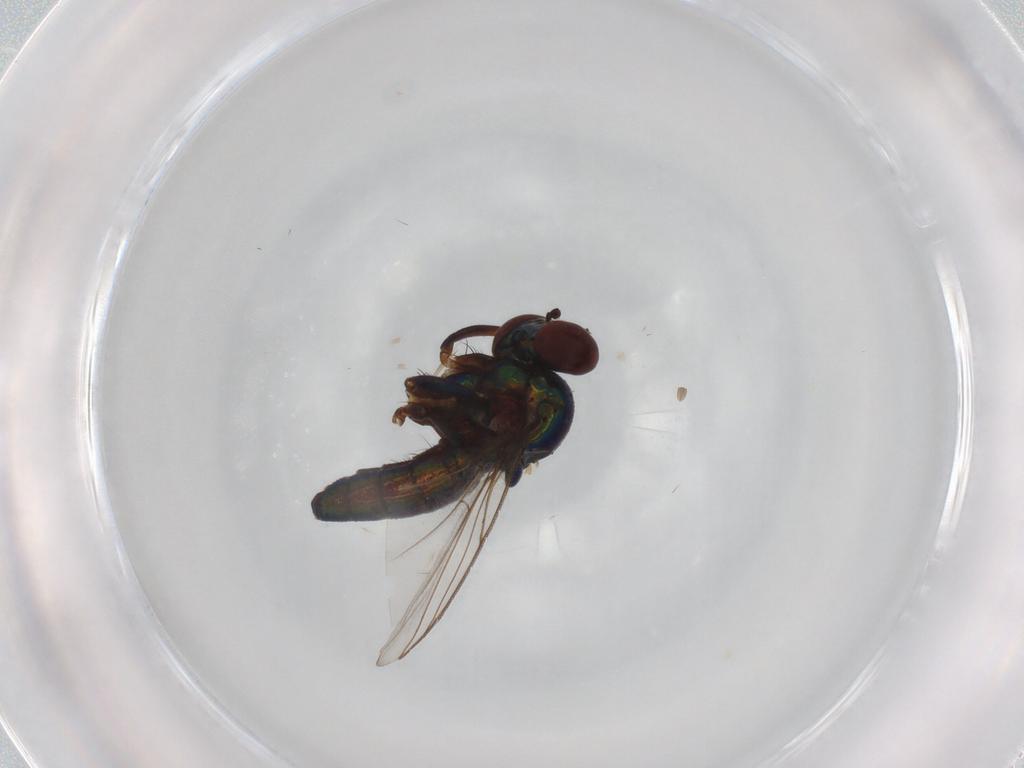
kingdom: Animalia
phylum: Arthropoda
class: Insecta
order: Diptera
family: Dolichopodidae
